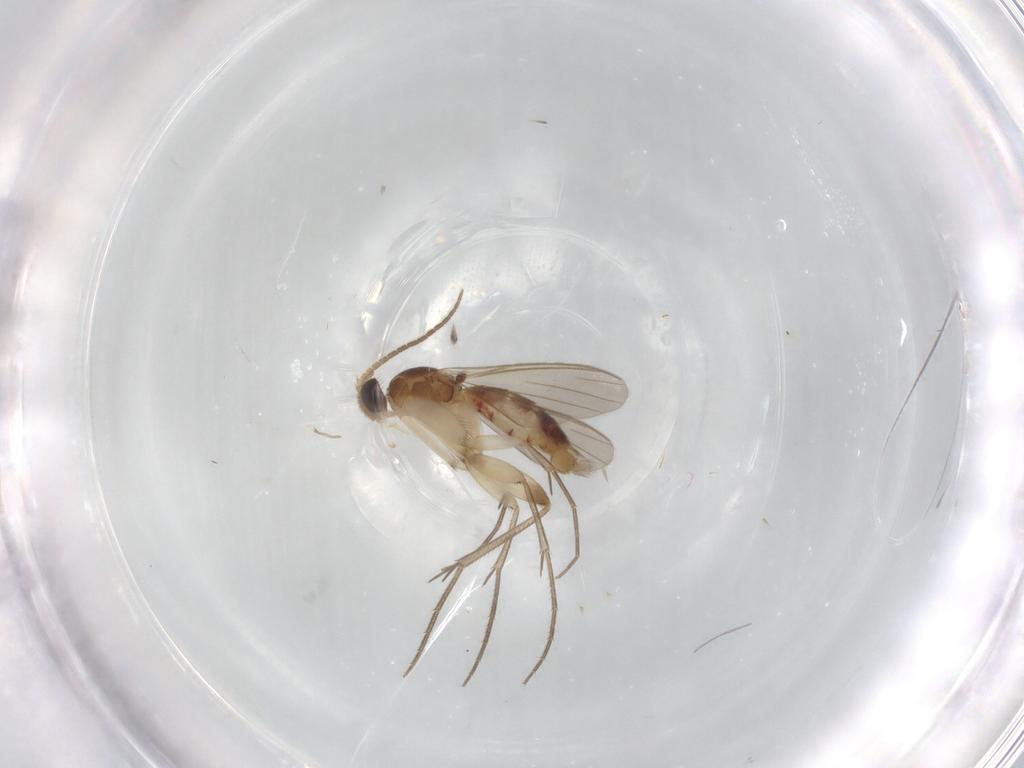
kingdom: Animalia
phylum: Arthropoda
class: Insecta
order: Diptera
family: Mycetophilidae
